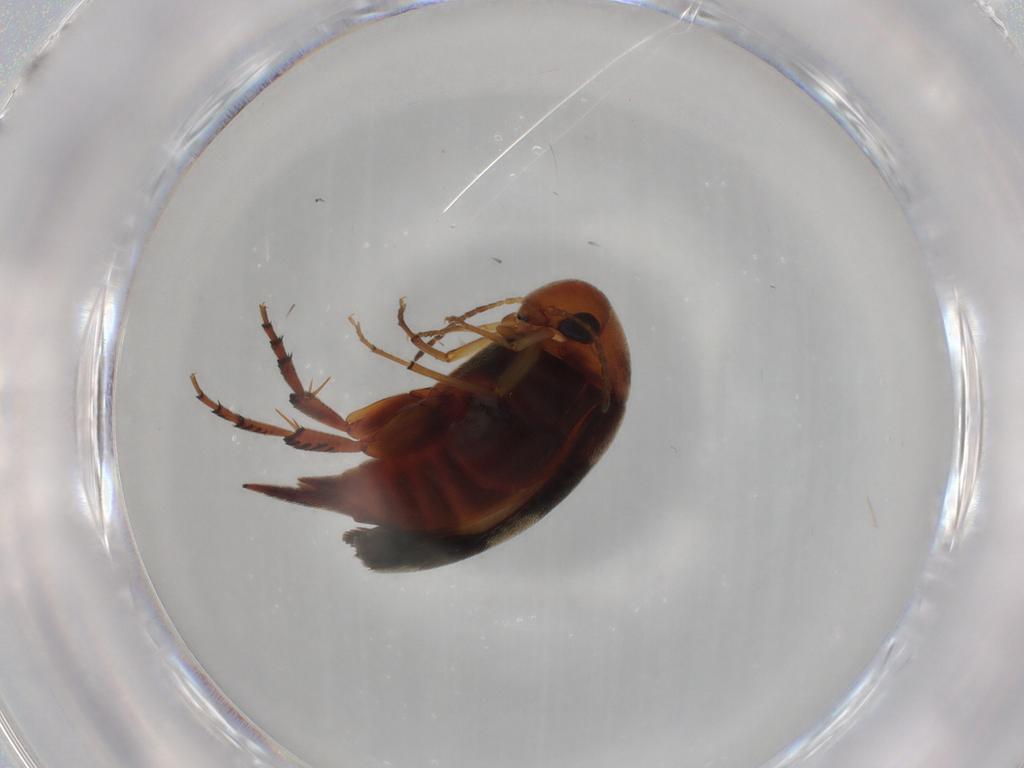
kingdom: Animalia
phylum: Arthropoda
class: Insecta
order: Coleoptera
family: Mordellidae
